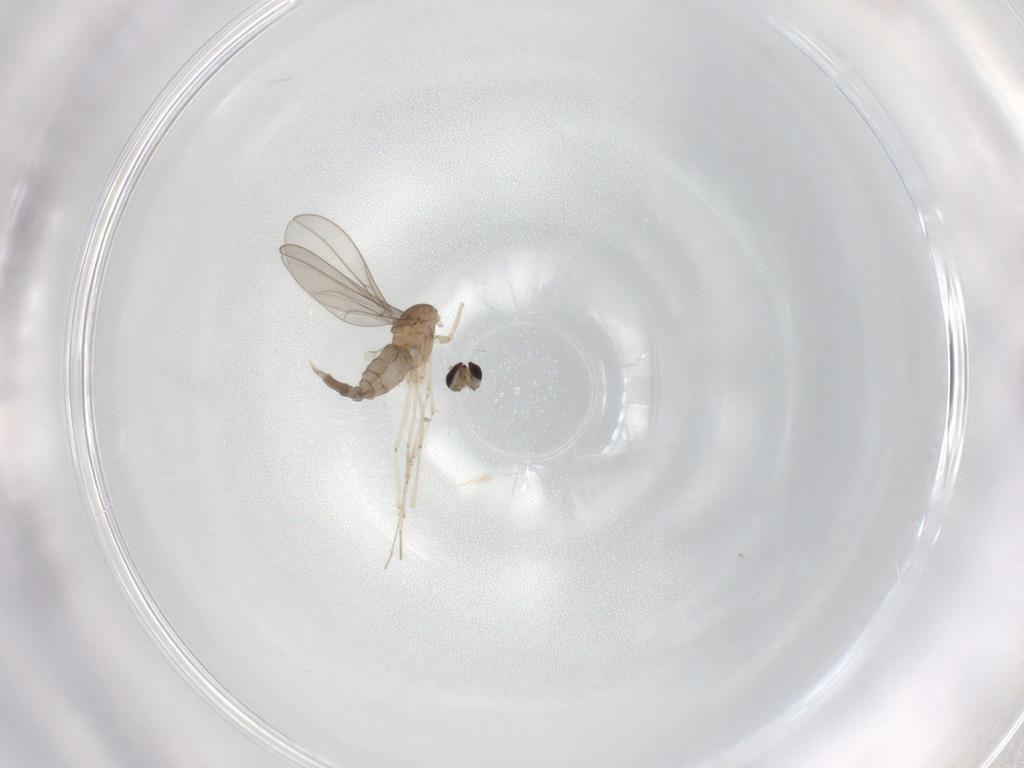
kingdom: Animalia
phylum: Arthropoda
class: Insecta
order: Diptera
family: Cecidomyiidae
